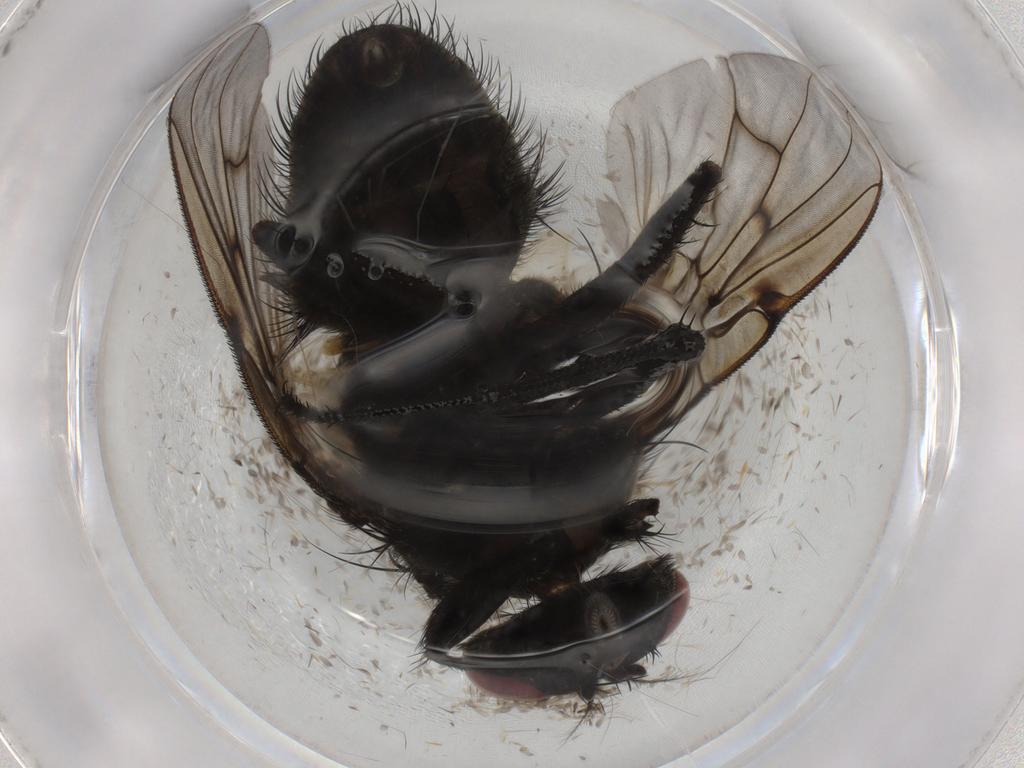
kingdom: Animalia
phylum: Arthropoda
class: Insecta
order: Diptera
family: Muscidae
